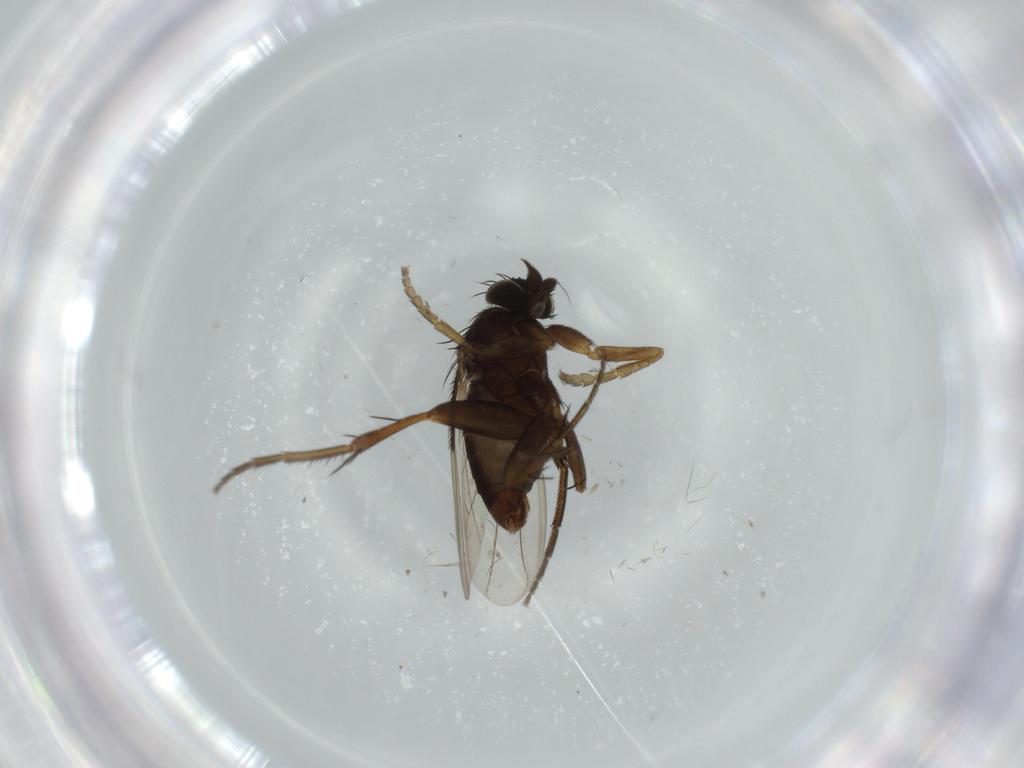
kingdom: Animalia
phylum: Arthropoda
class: Insecta
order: Diptera
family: Phoridae
